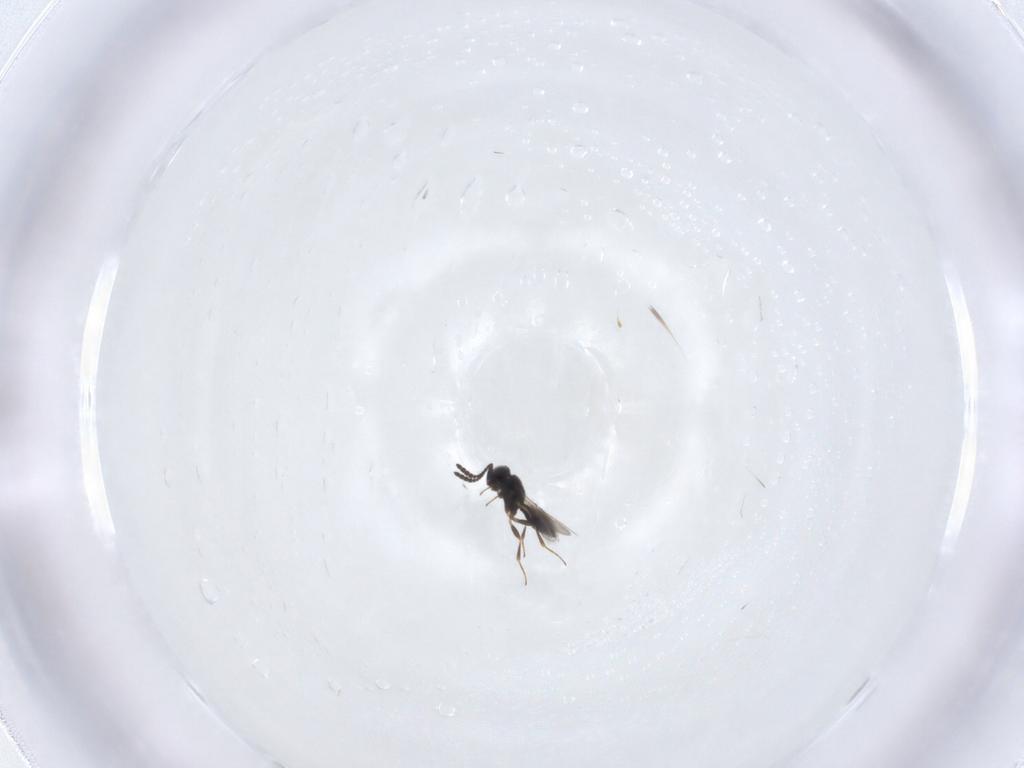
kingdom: Animalia
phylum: Arthropoda
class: Insecta
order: Hymenoptera
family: Scelionidae
